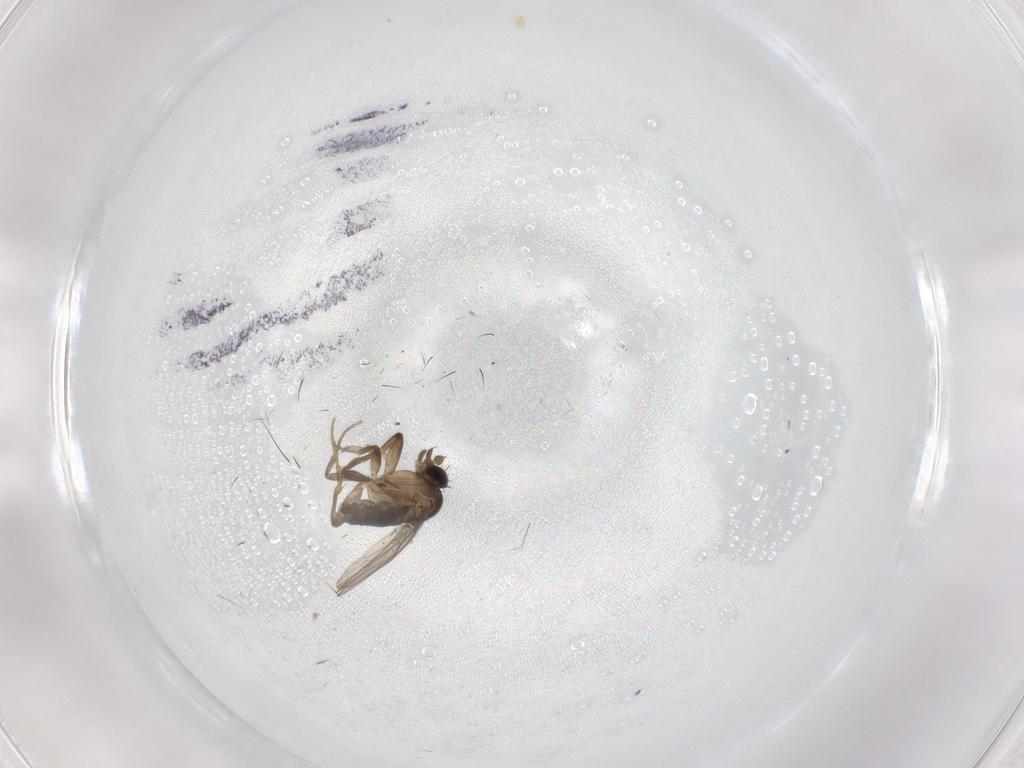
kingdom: Animalia
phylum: Arthropoda
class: Insecta
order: Diptera
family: Phoridae
